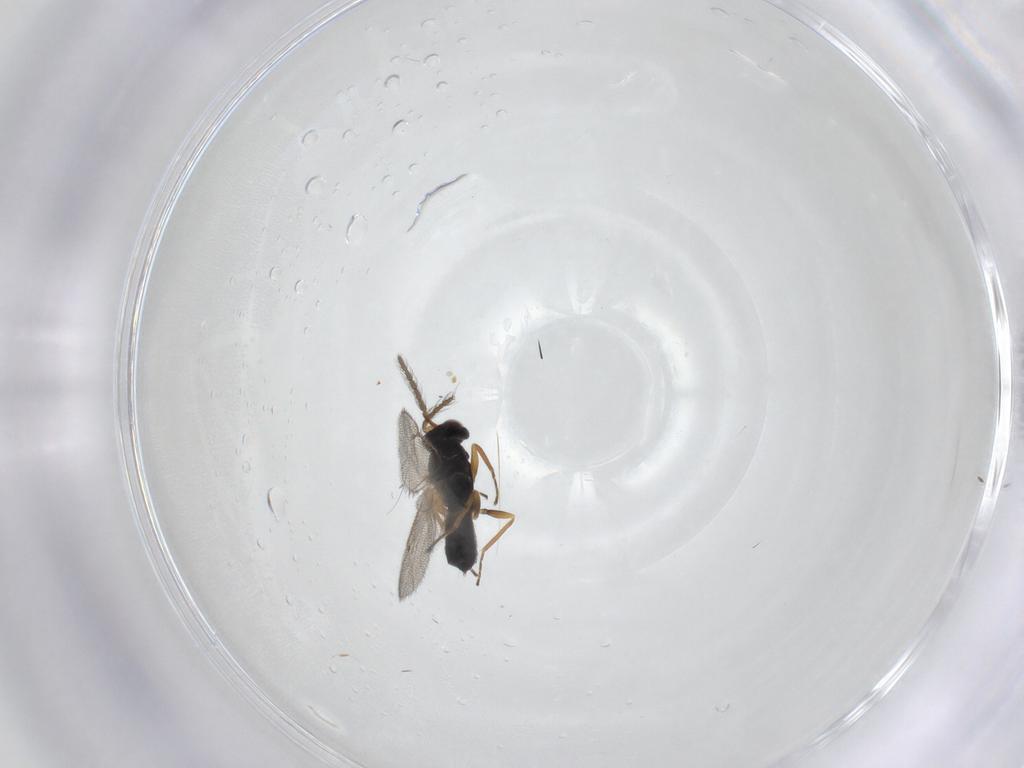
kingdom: Animalia
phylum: Arthropoda
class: Insecta
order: Hymenoptera
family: Eulophidae
